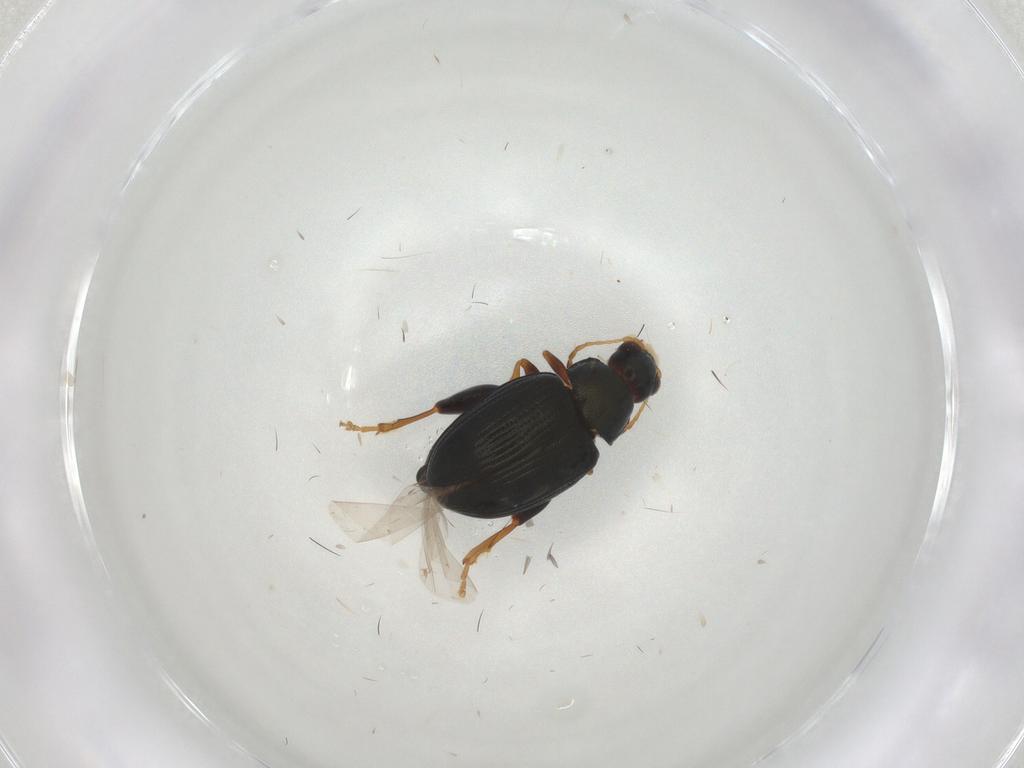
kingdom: Animalia
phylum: Arthropoda
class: Insecta
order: Coleoptera
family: Chrysomelidae
